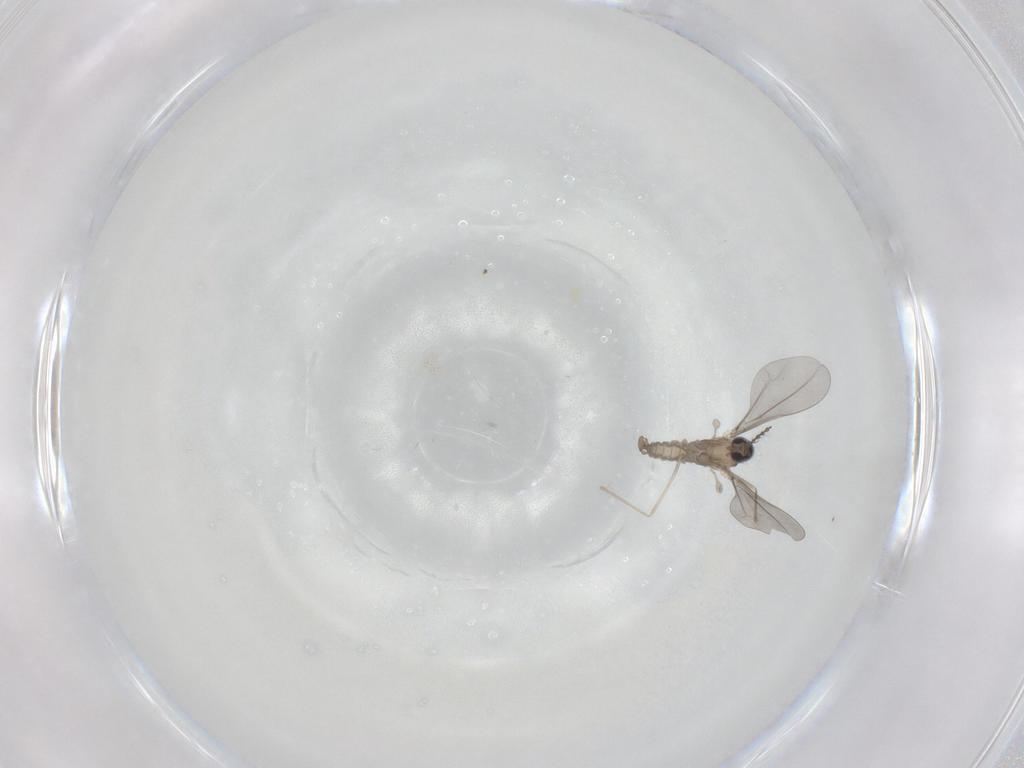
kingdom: Animalia
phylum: Arthropoda
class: Insecta
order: Diptera
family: Cecidomyiidae
